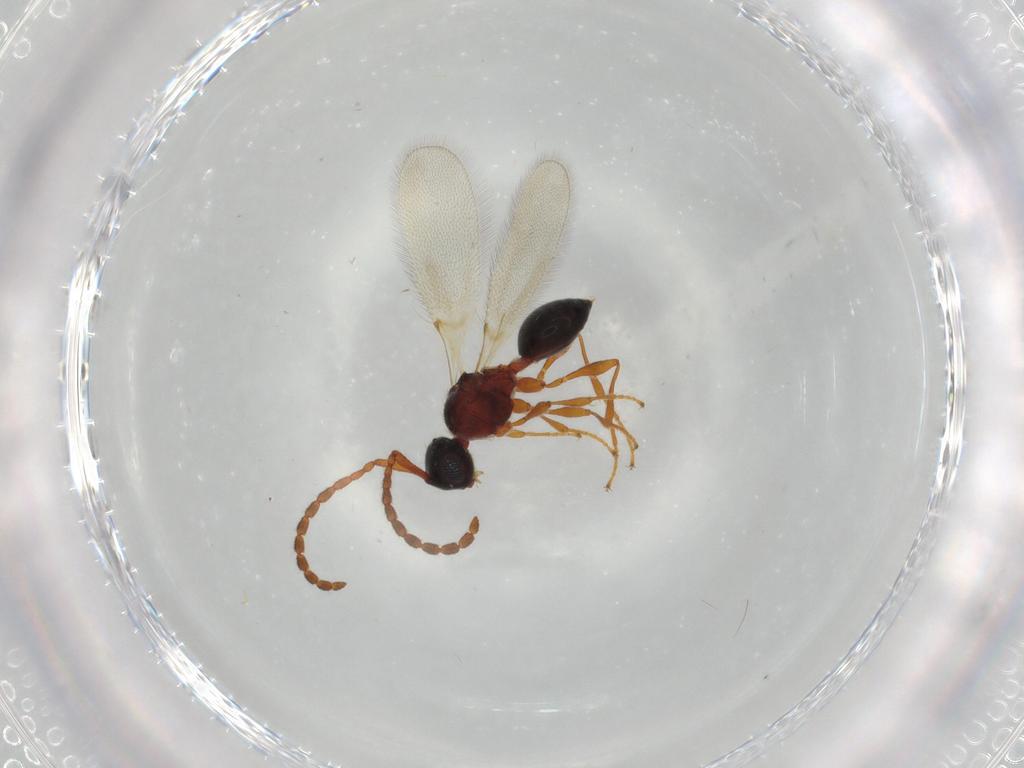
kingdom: Animalia
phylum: Arthropoda
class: Insecta
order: Hymenoptera
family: Diapriidae
